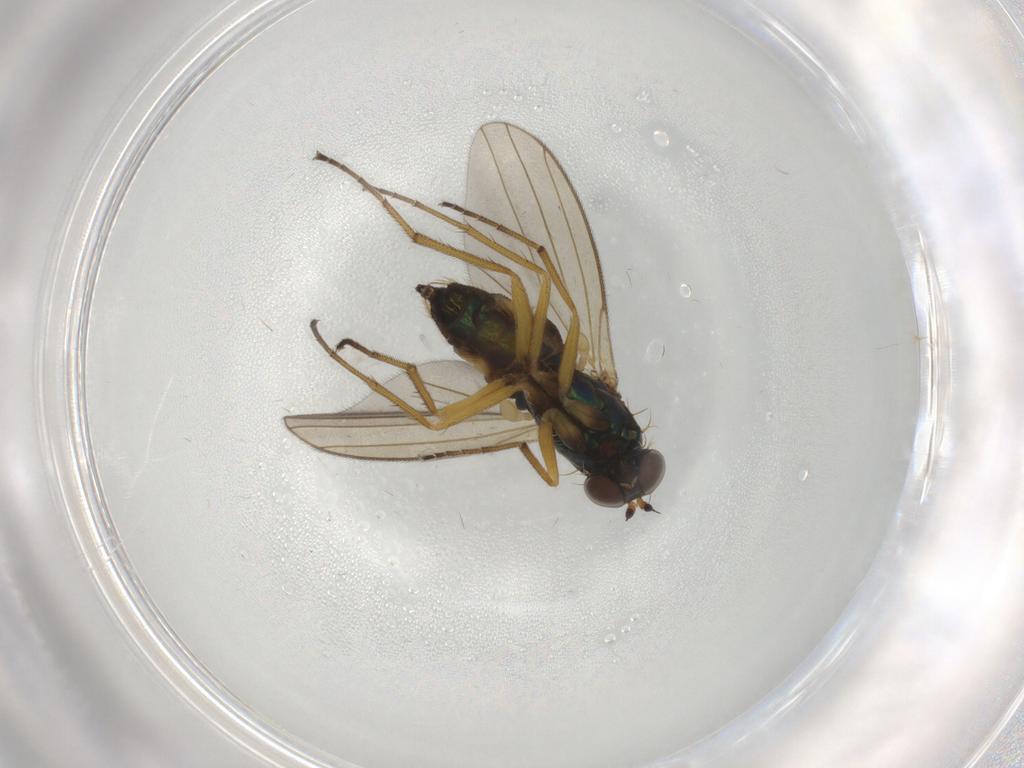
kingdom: Animalia
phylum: Arthropoda
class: Insecta
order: Diptera
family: Dolichopodidae
